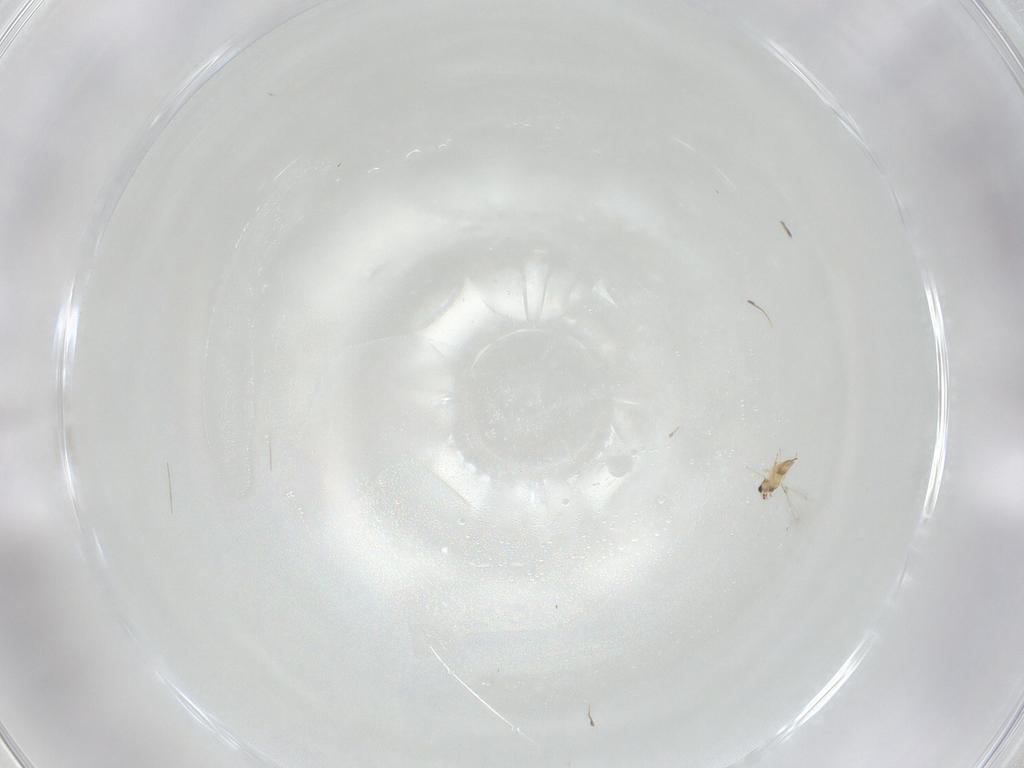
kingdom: Animalia
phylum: Arthropoda
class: Insecta
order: Hymenoptera
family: Mymaridae
